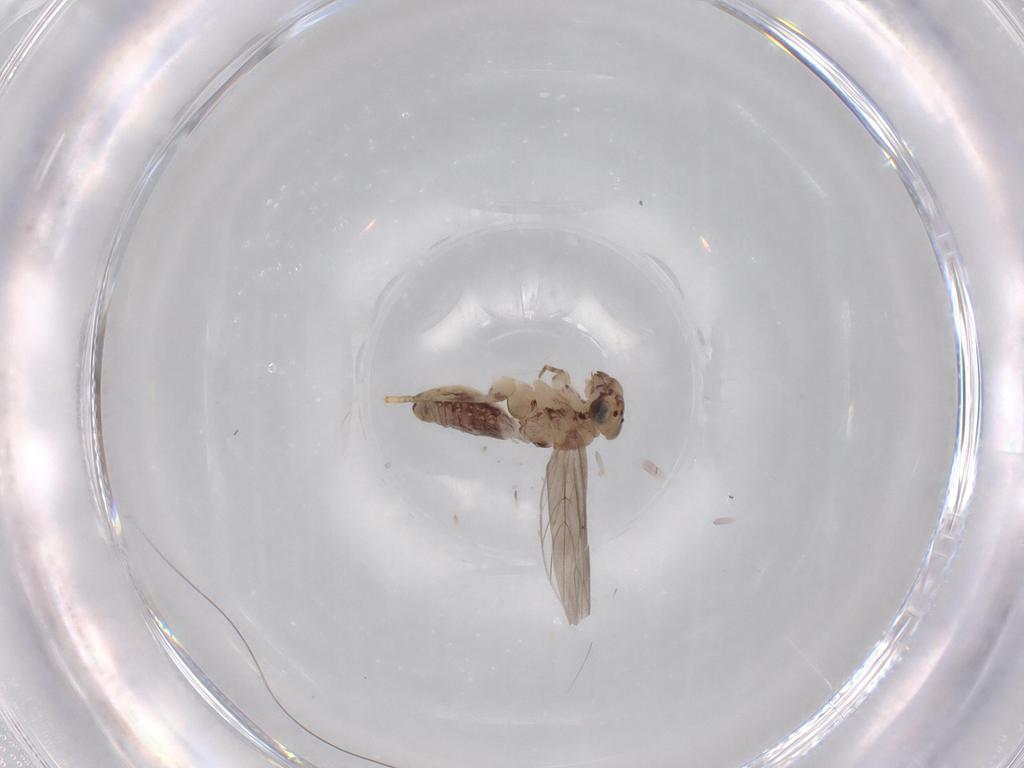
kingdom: Animalia
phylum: Arthropoda
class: Insecta
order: Psocodea
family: Lepidopsocidae
